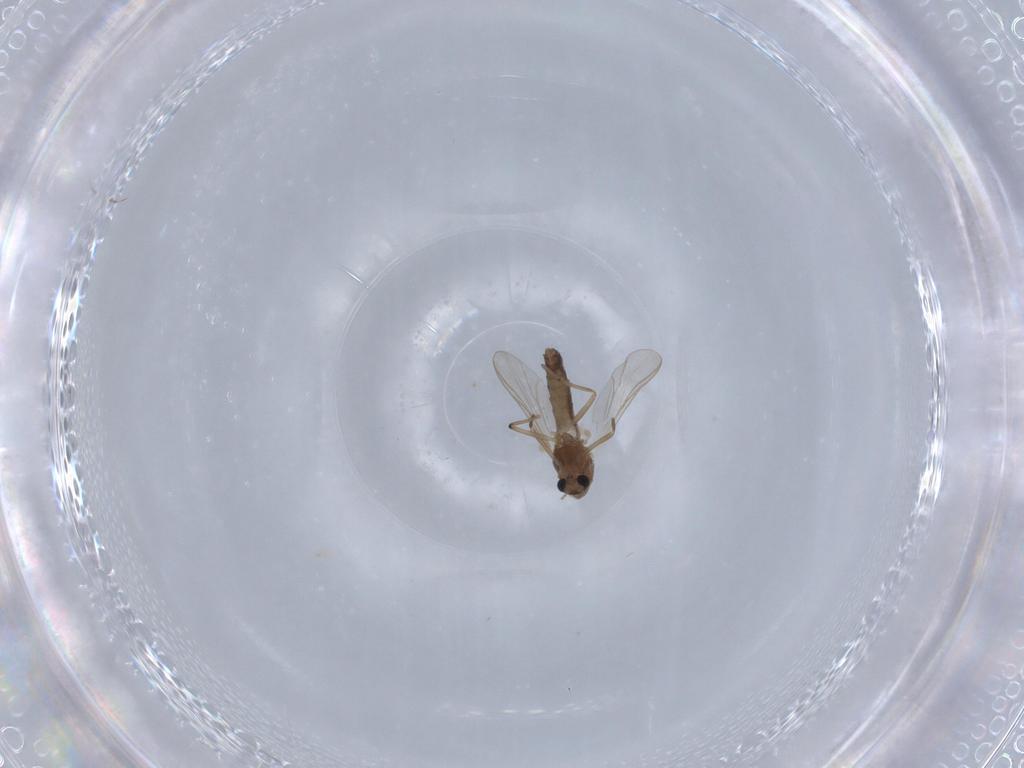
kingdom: Animalia
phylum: Arthropoda
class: Insecta
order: Diptera
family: Chironomidae
